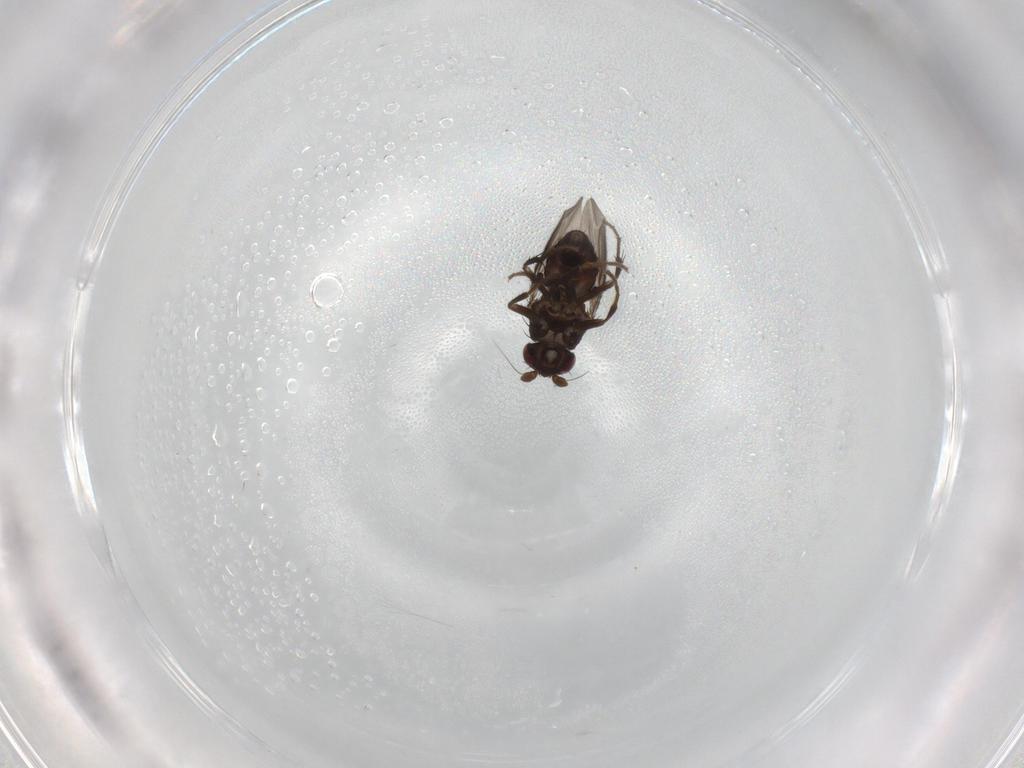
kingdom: Animalia
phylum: Arthropoda
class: Insecta
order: Diptera
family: Sphaeroceridae
